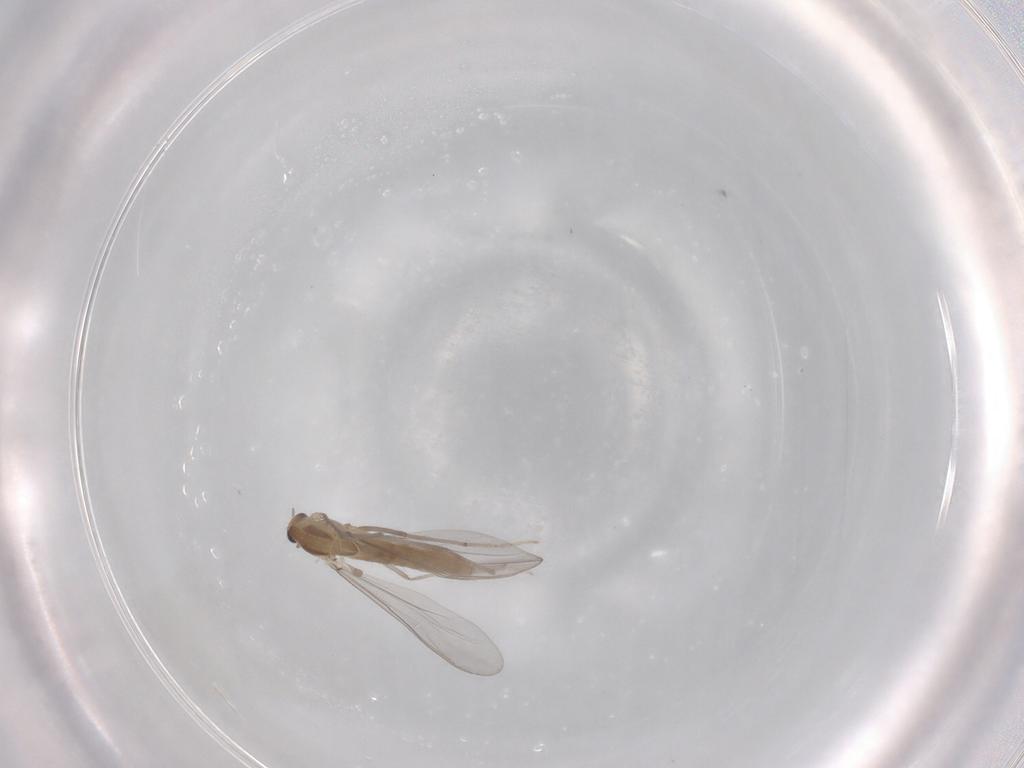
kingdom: Animalia
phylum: Arthropoda
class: Insecta
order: Diptera
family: Chironomidae
